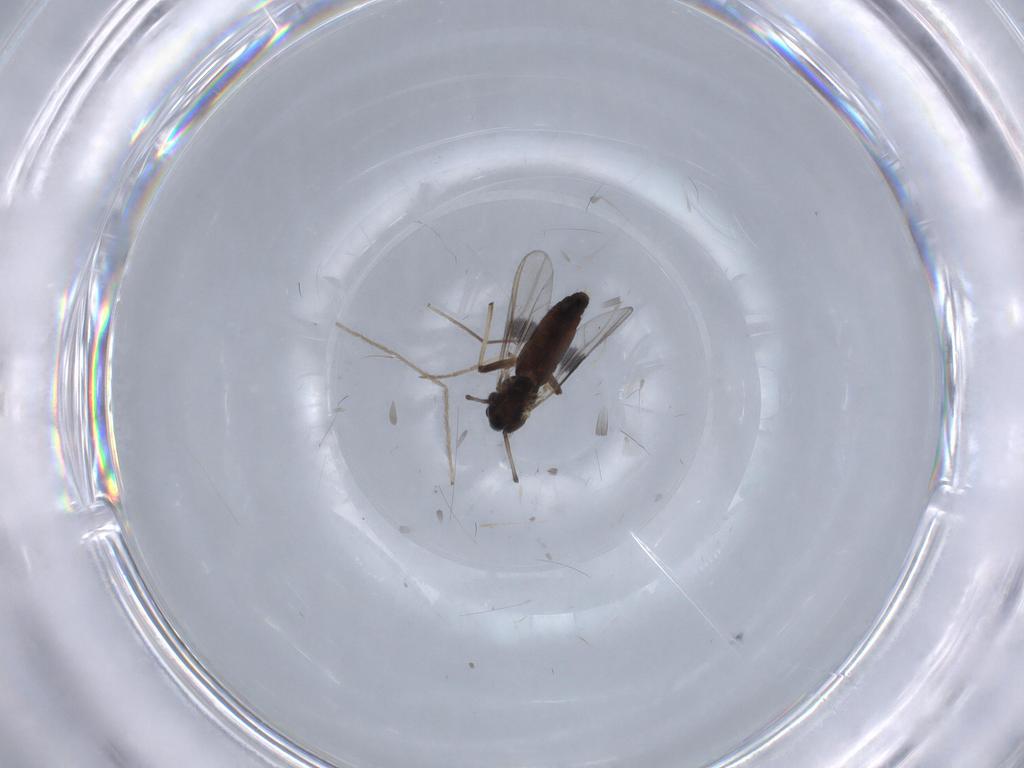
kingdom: Animalia
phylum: Arthropoda
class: Insecta
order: Diptera
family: Chironomidae
